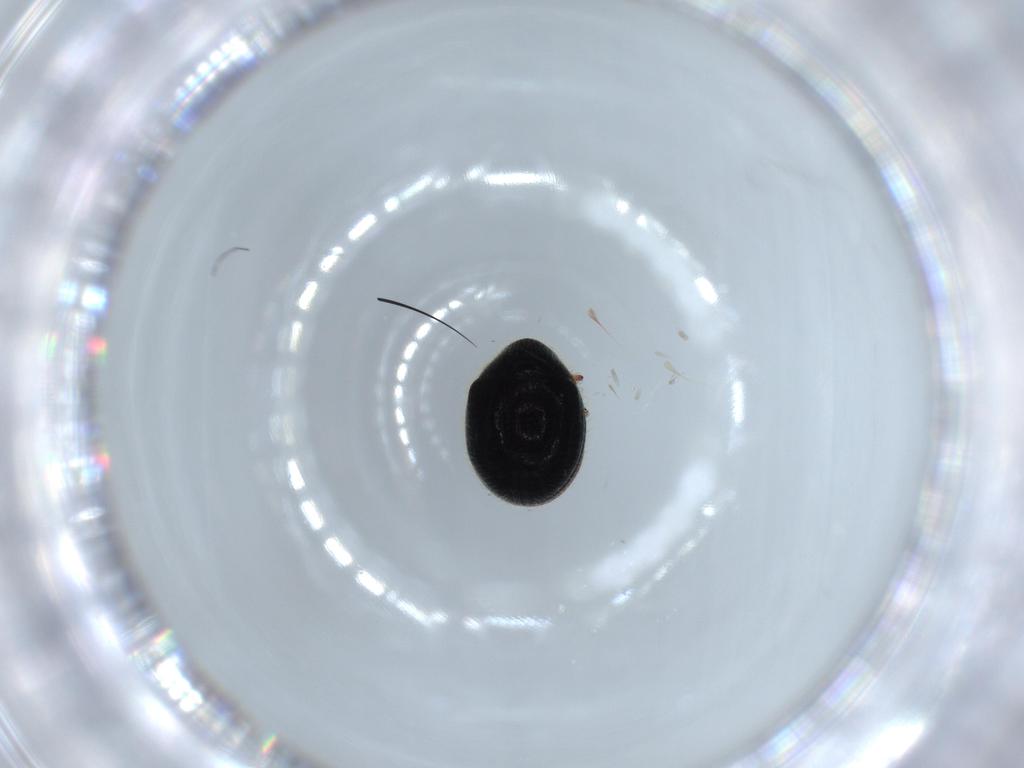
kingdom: Animalia
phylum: Arthropoda
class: Insecta
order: Coleoptera
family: Ptinidae
